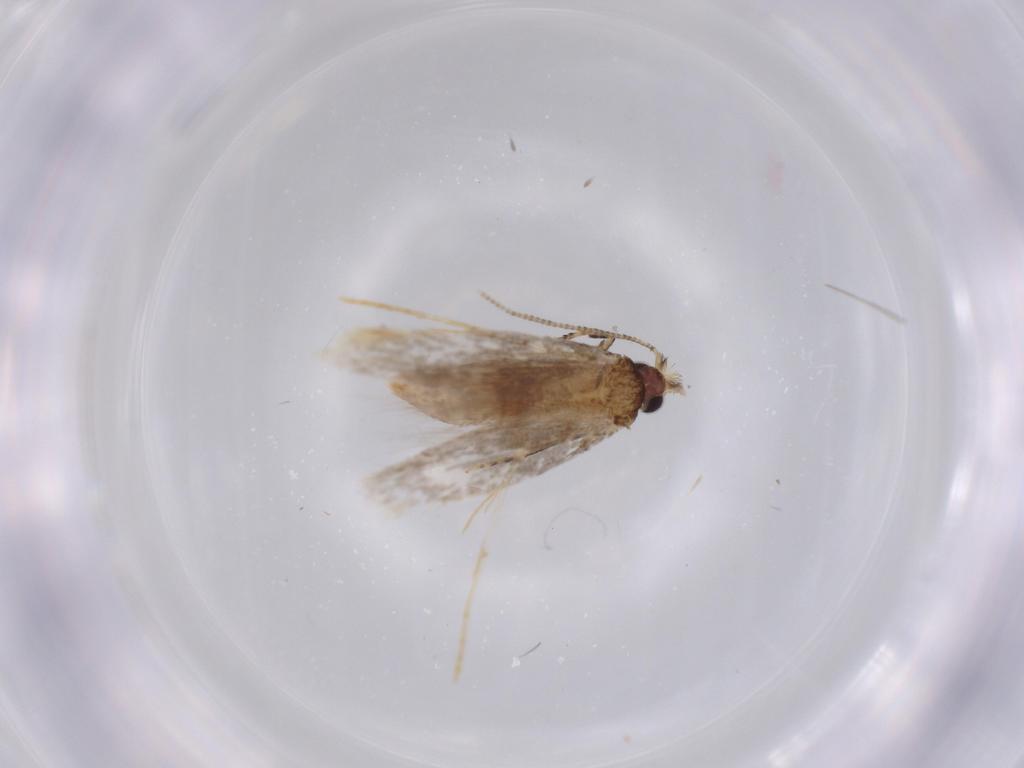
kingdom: Animalia
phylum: Arthropoda
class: Insecta
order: Lepidoptera
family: Tineidae
